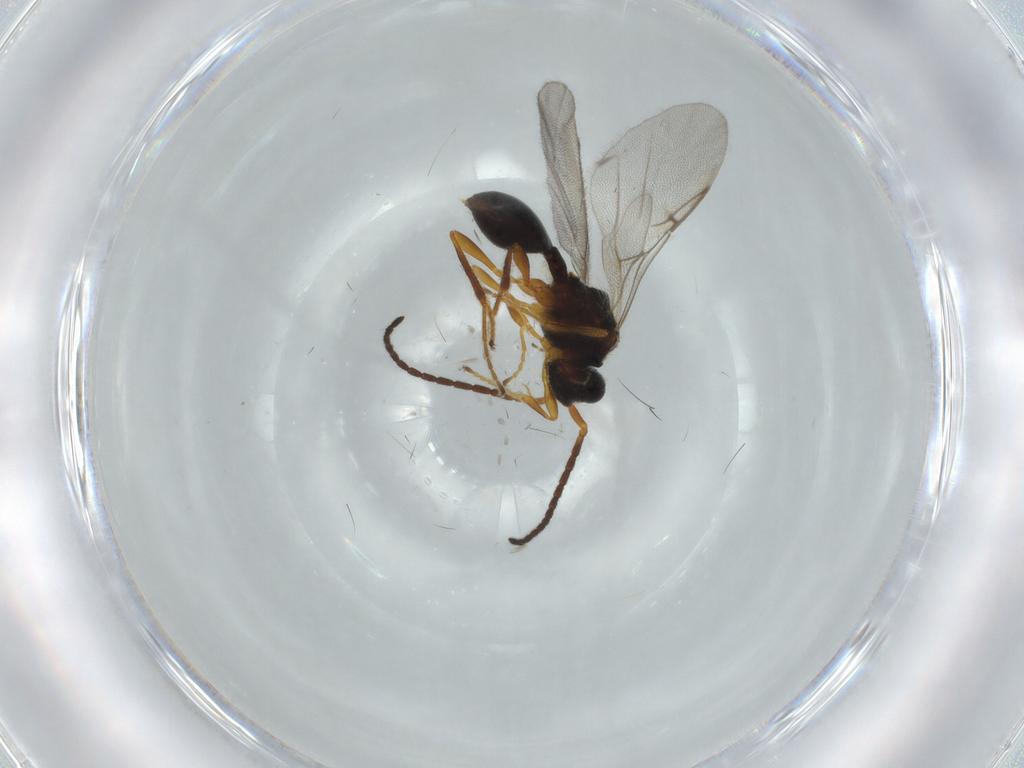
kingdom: Animalia
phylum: Arthropoda
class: Insecta
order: Hymenoptera
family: Diapriidae
